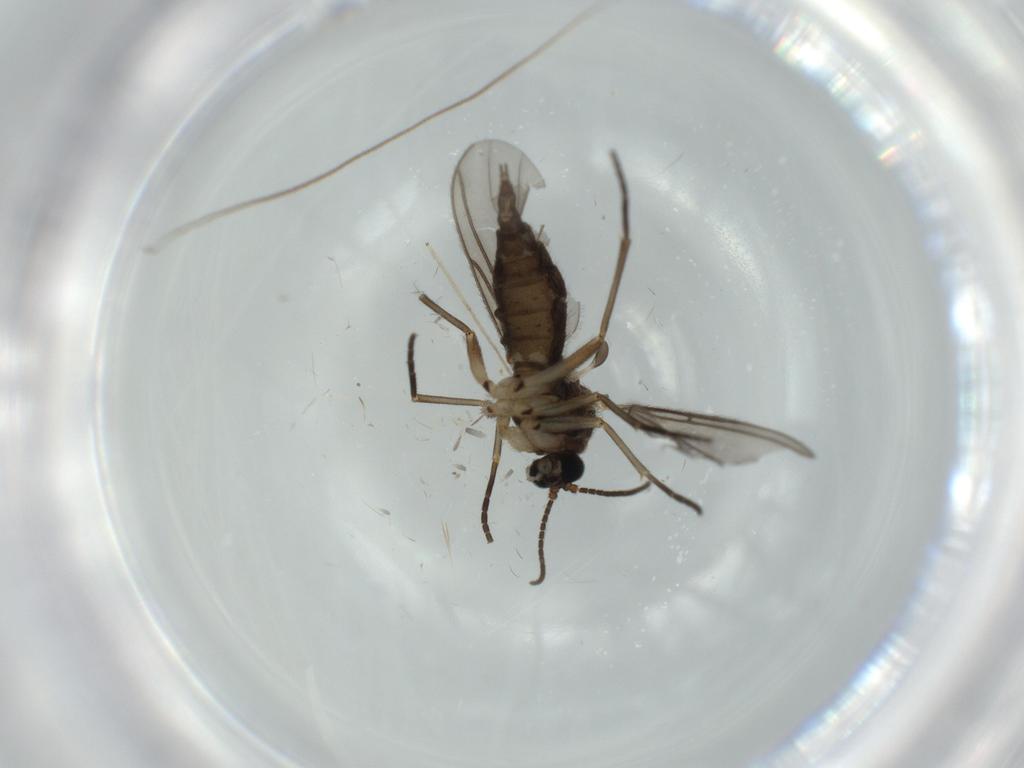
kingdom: Animalia
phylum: Arthropoda
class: Insecta
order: Diptera
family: Sciaridae
